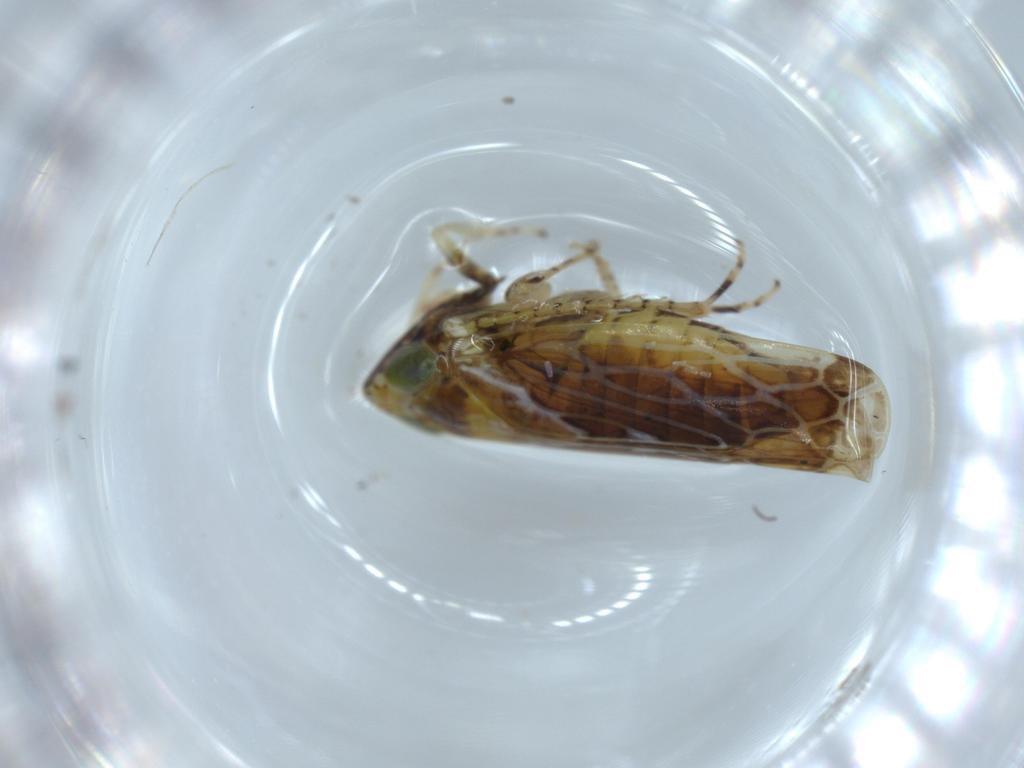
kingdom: Animalia
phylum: Arthropoda
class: Insecta
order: Hemiptera
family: Cicadellidae
